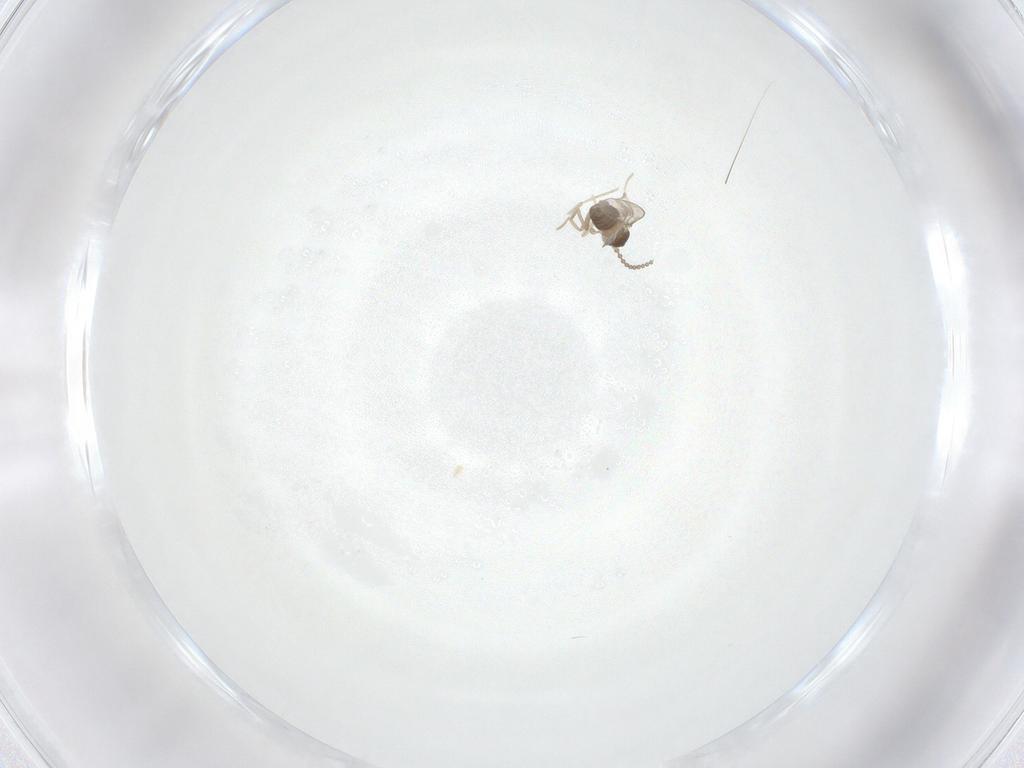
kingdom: Animalia
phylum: Arthropoda
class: Insecta
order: Diptera
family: Cecidomyiidae
